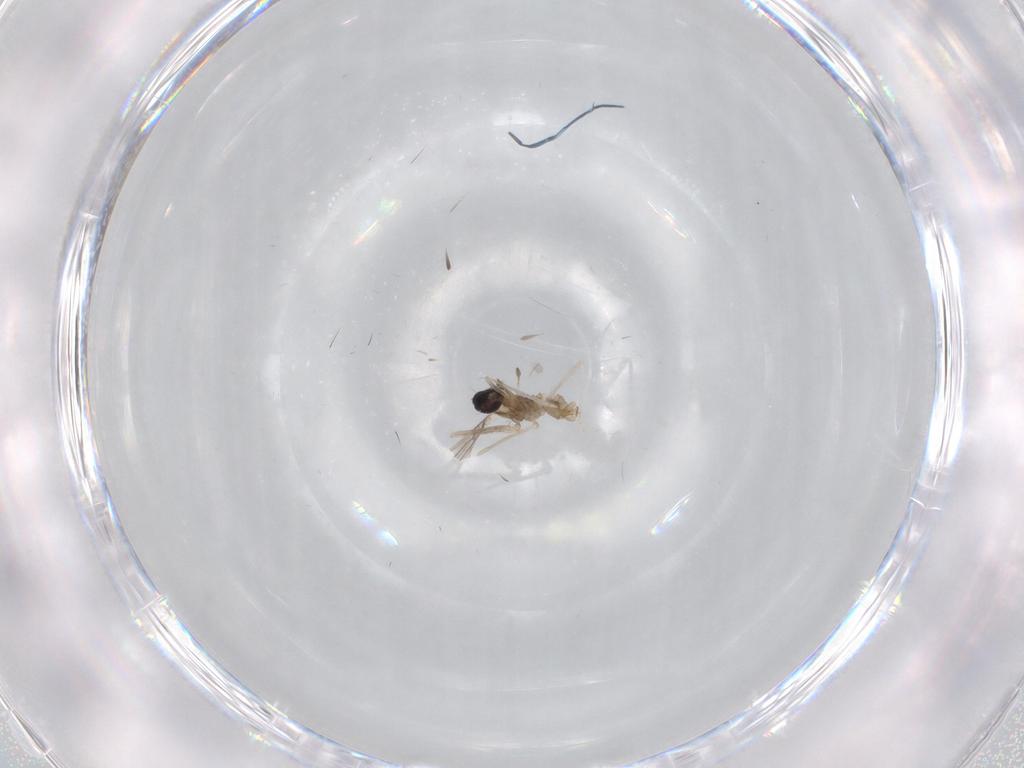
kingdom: Animalia
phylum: Arthropoda
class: Insecta
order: Diptera
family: Cecidomyiidae
